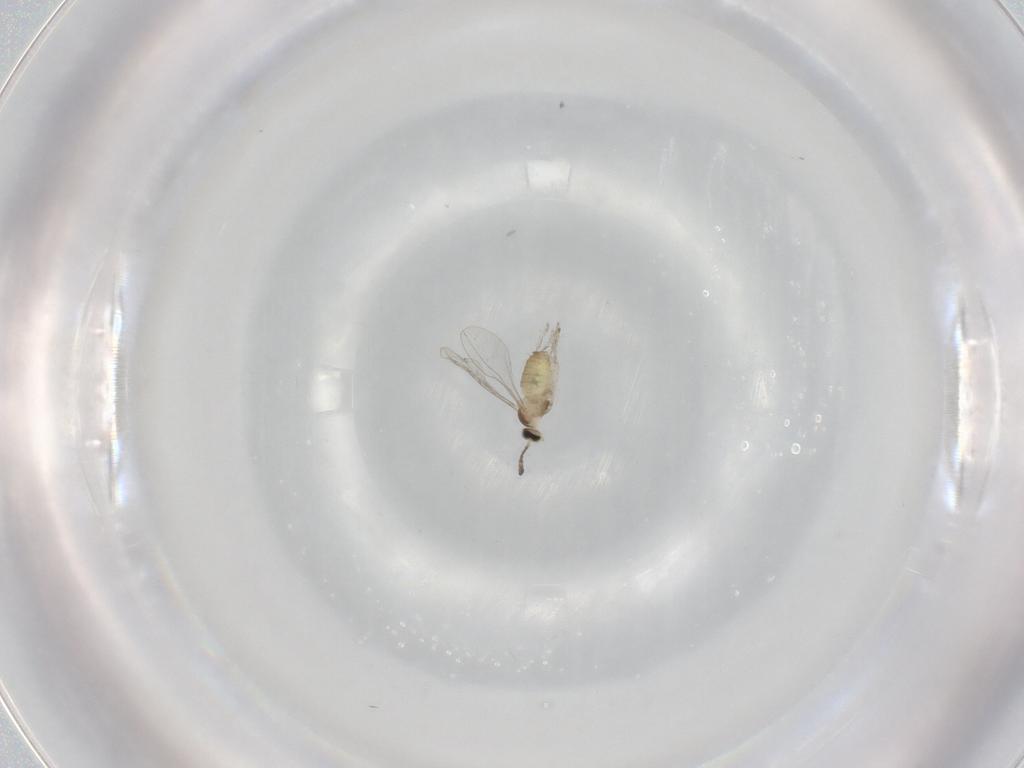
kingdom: Animalia
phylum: Arthropoda
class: Insecta
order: Diptera
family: Cecidomyiidae
